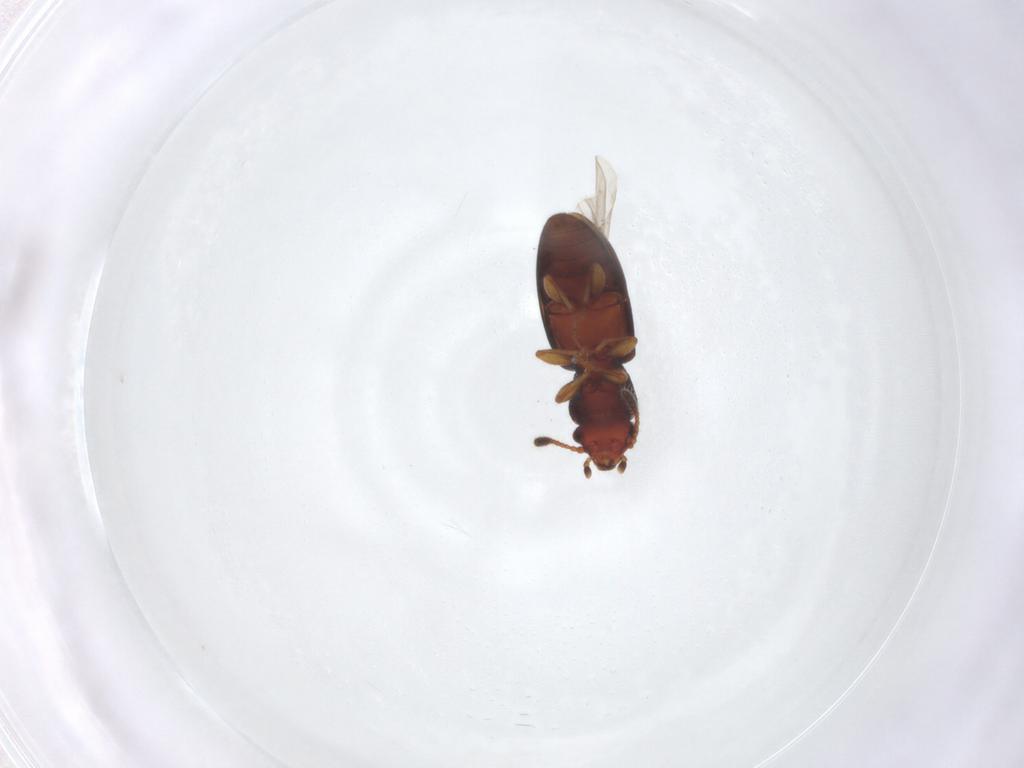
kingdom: Animalia
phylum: Arthropoda
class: Insecta
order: Coleoptera
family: Salpingidae
